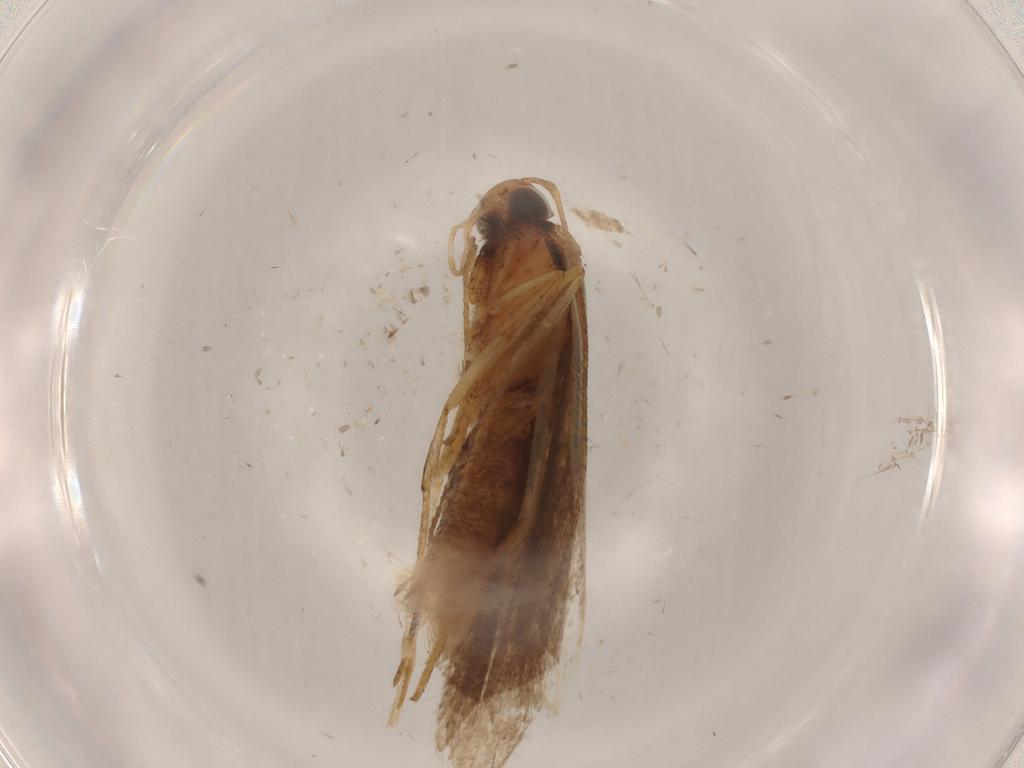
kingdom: Animalia
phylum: Arthropoda
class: Insecta
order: Lepidoptera
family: Gelechiidae
